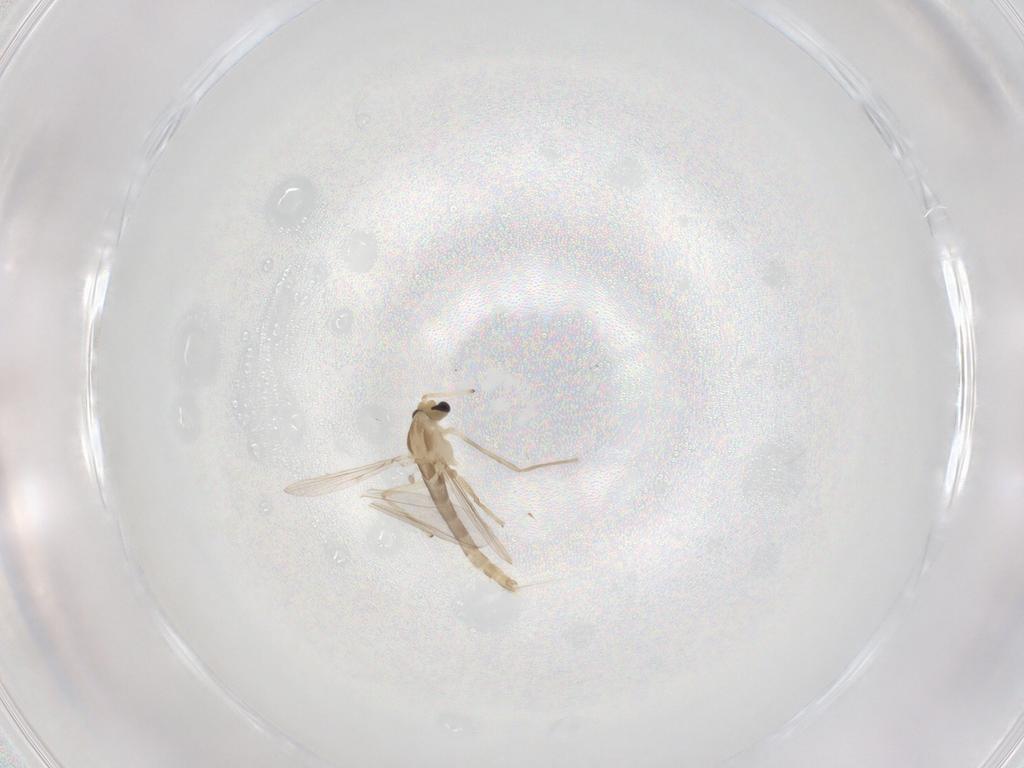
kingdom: Animalia
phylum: Arthropoda
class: Insecta
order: Diptera
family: Chironomidae
